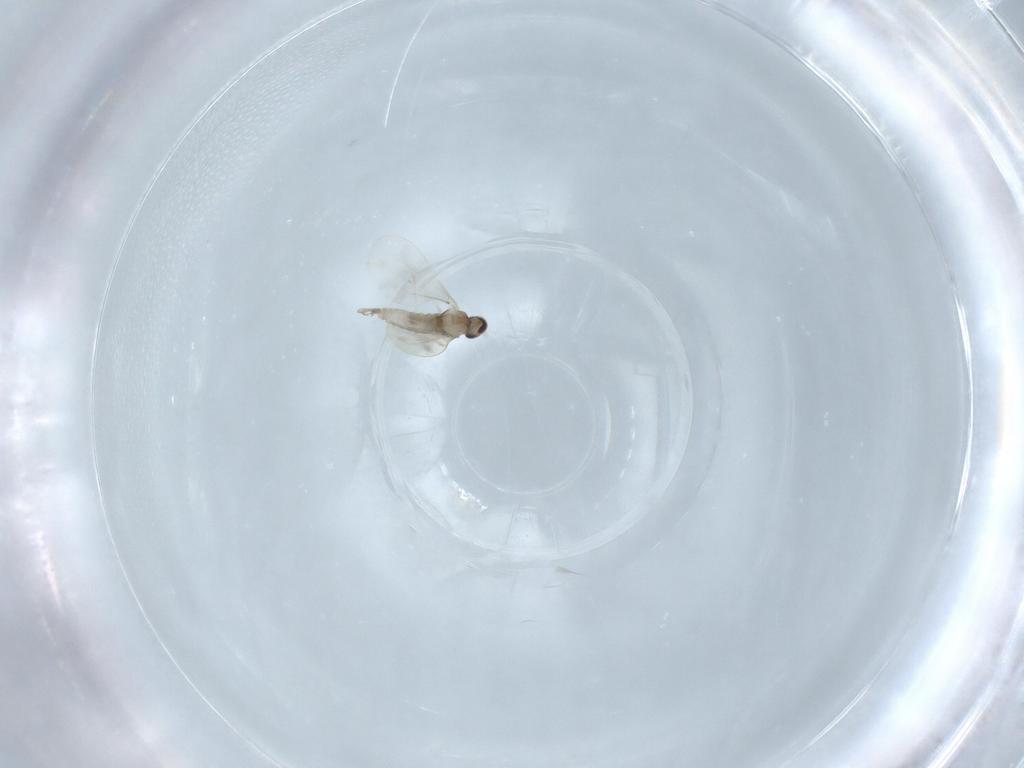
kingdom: Animalia
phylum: Arthropoda
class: Insecta
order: Diptera
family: Cecidomyiidae
